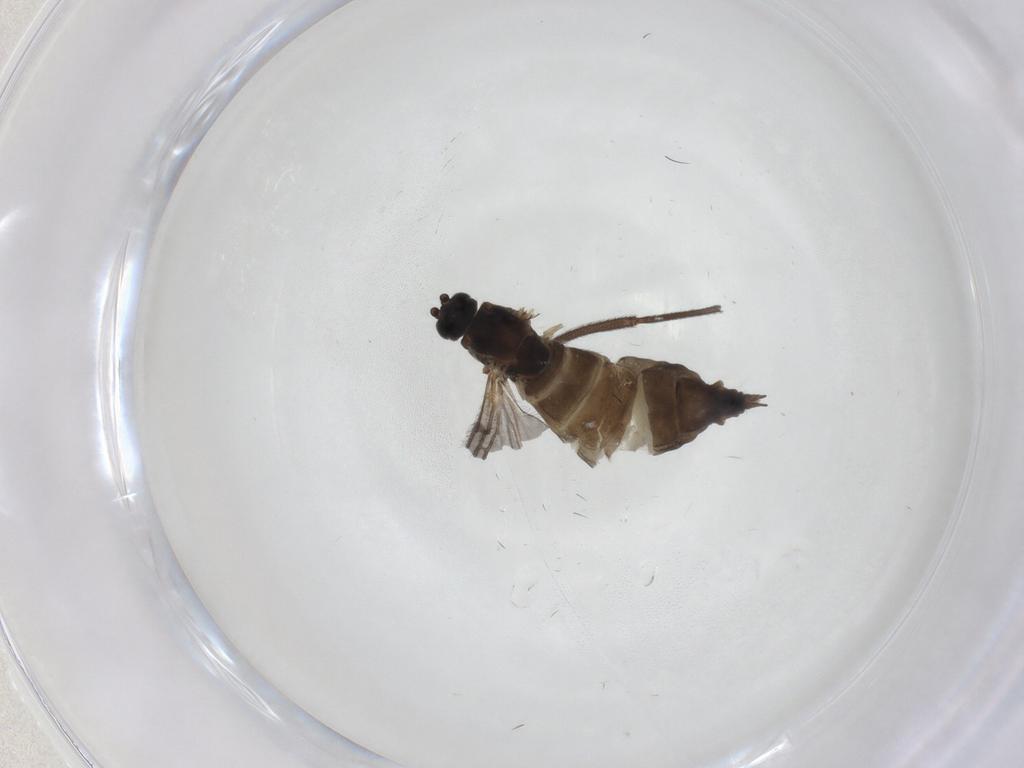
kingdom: Animalia
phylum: Arthropoda
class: Insecta
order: Diptera
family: Sciaridae
